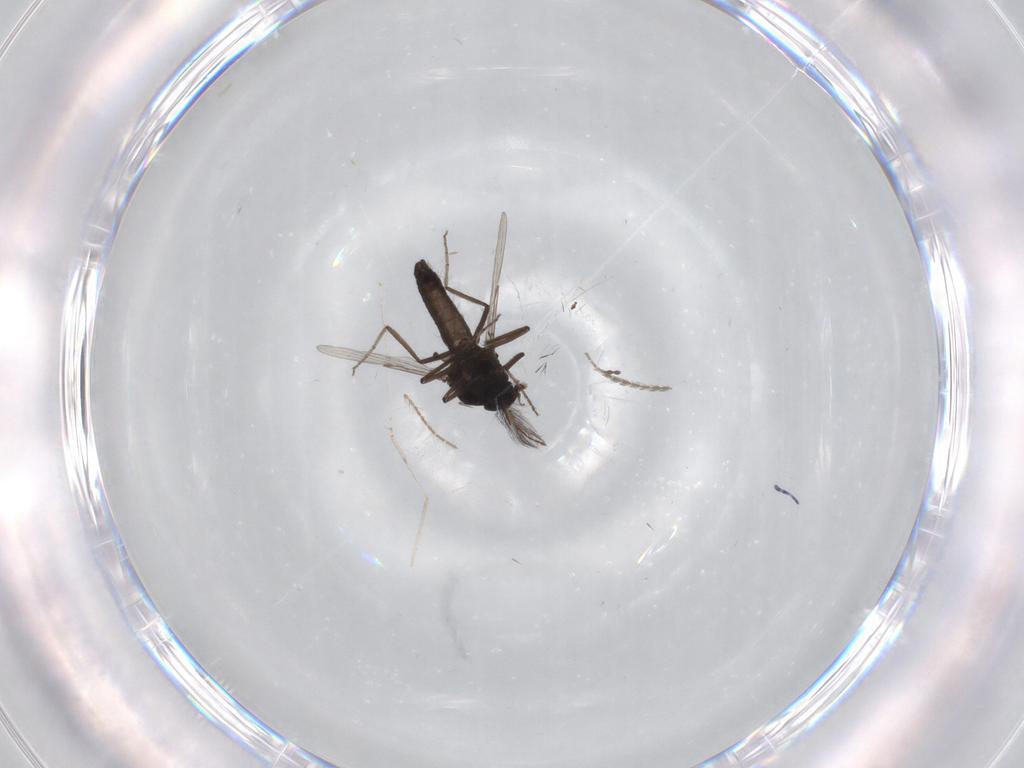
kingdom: Animalia
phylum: Arthropoda
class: Insecta
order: Diptera
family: Ceratopogonidae
